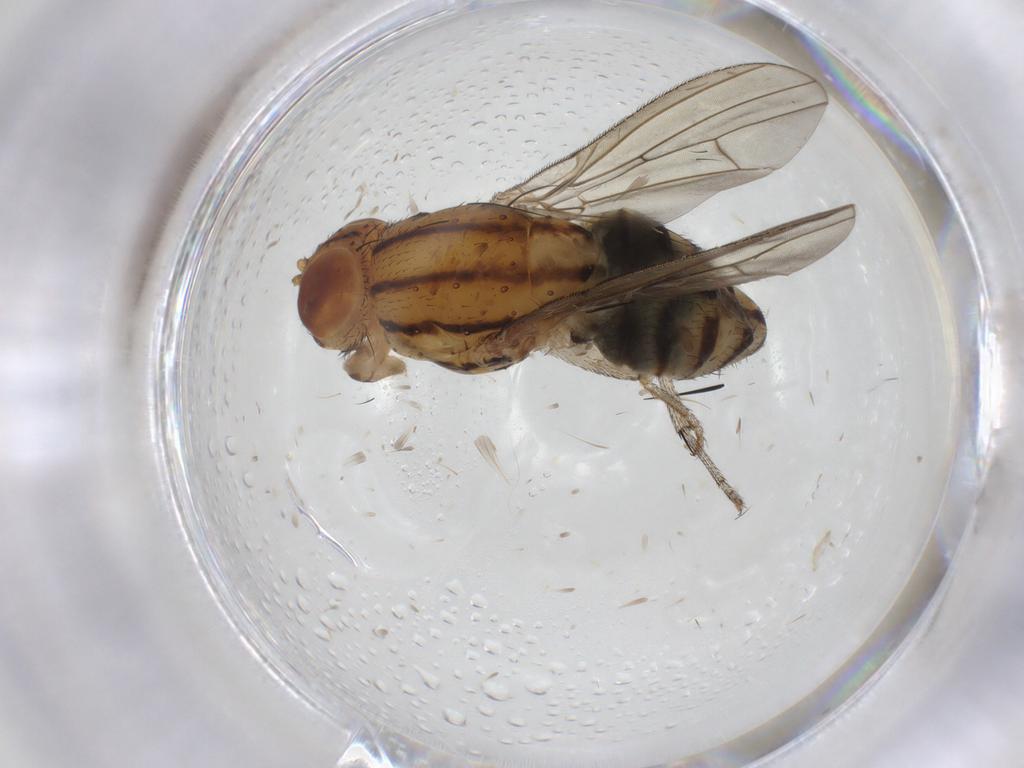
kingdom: Animalia
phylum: Arthropoda
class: Insecta
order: Diptera
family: Tachinidae
